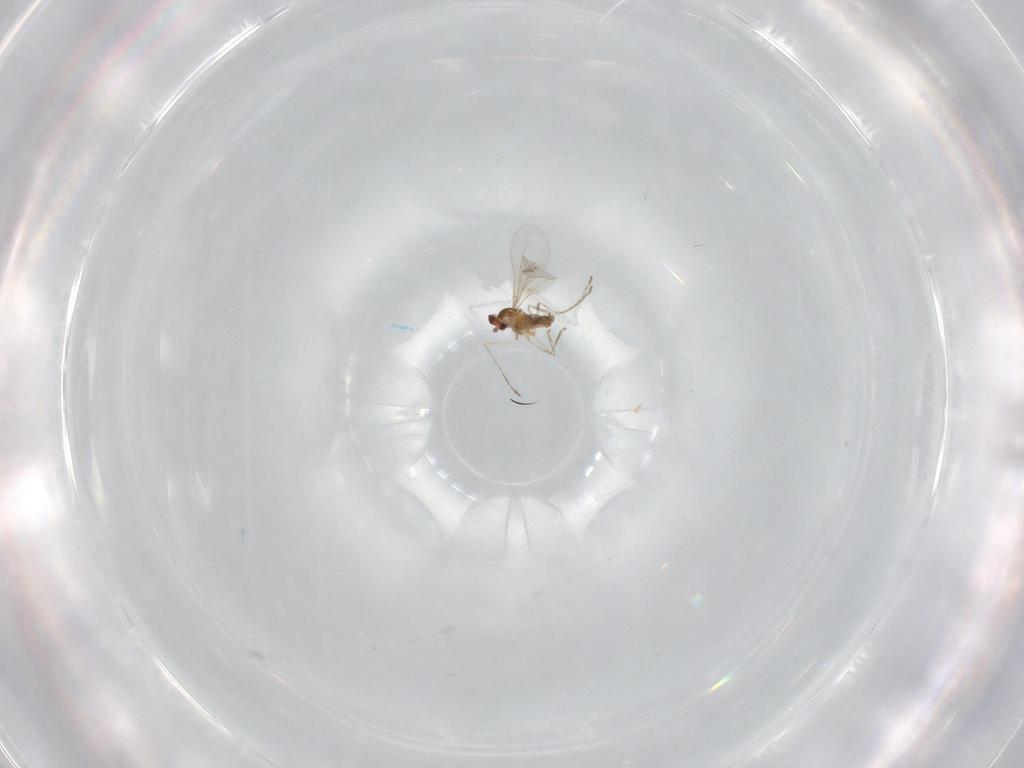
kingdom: Animalia
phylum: Arthropoda
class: Insecta
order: Diptera
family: Cecidomyiidae
